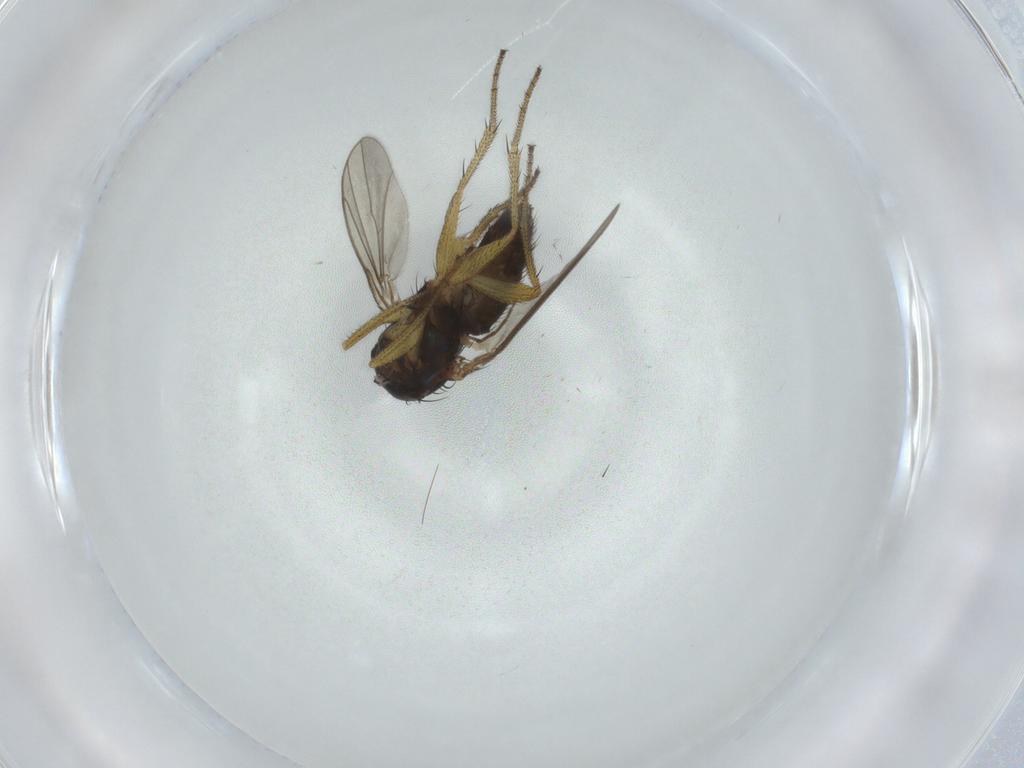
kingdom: Animalia
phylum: Arthropoda
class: Insecta
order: Diptera
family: Dolichopodidae
